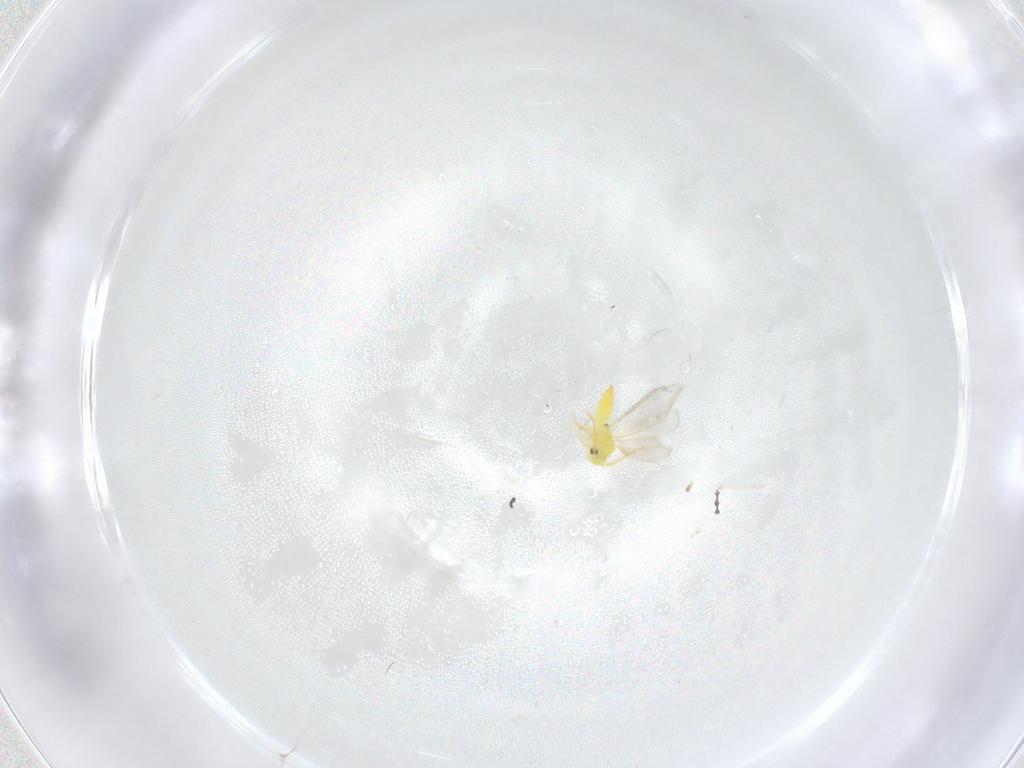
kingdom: Animalia
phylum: Arthropoda
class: Insecta
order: Hemiptera
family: Aleyrodidae
